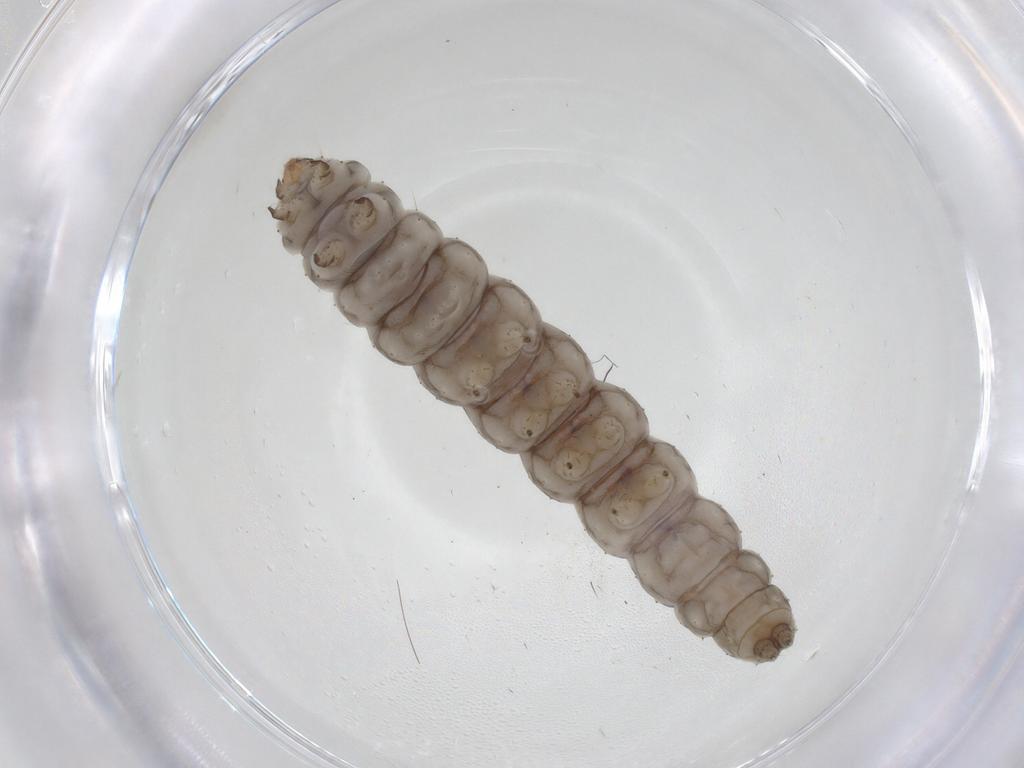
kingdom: Animalia
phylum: Arthropoda
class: Insecta
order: Lepidoptera
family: Bucculatricidae
